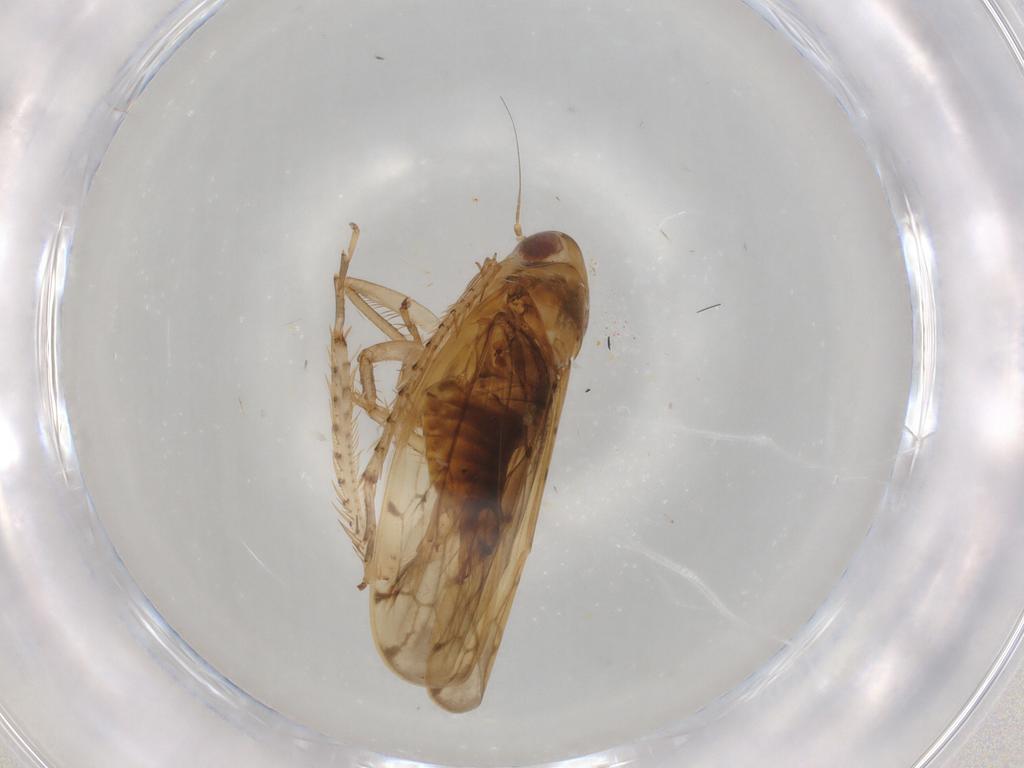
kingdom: Animalia
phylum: Arthropoda
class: Insecta
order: Hemiptera
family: Cicadellidae
